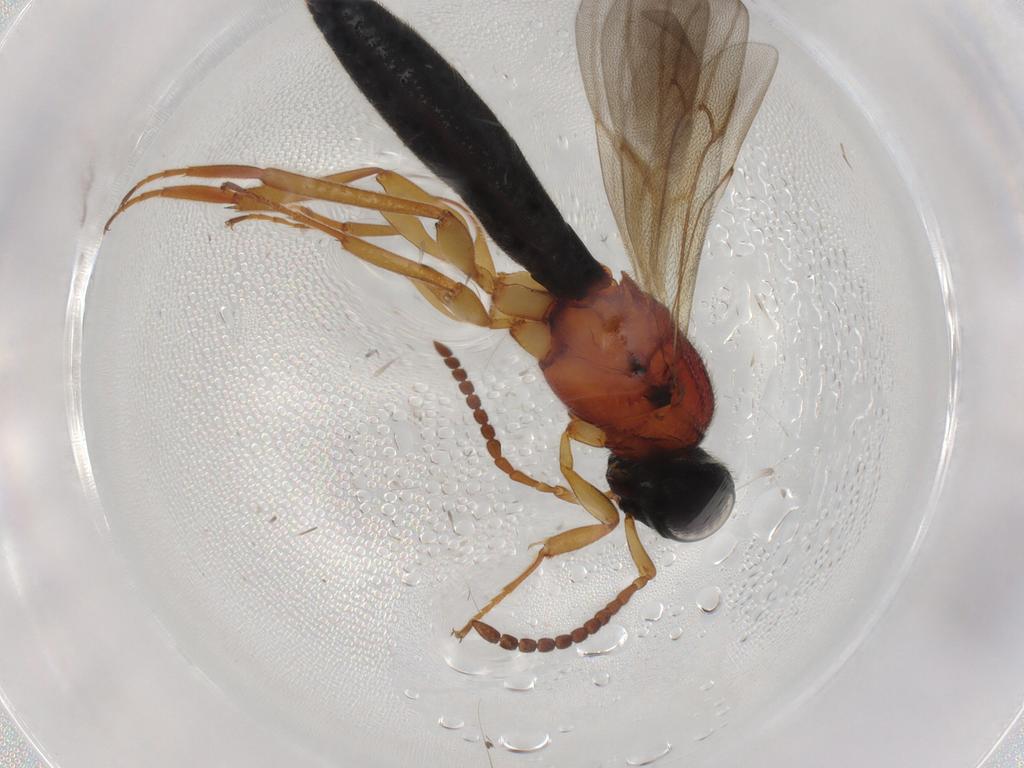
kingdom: Animalia
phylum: Arthropoda
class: Insecta
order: Hymenoptera
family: Scelionidae
